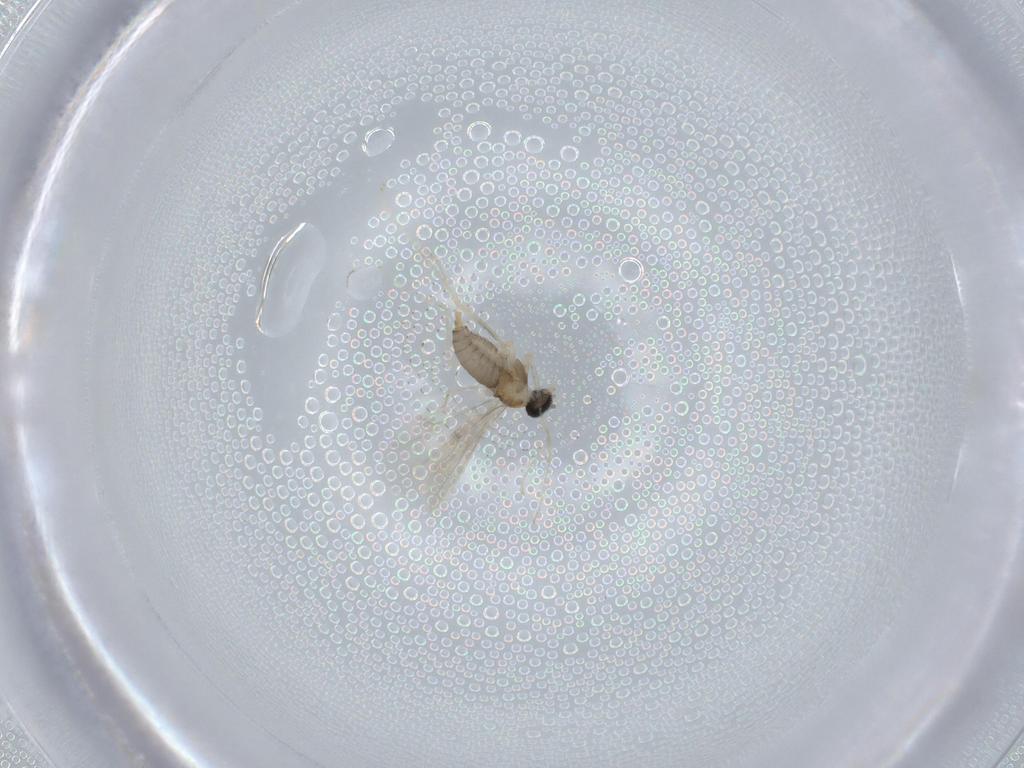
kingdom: Animalia
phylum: Arthropoda
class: Insecta
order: Diptera
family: Cecidomyiidae
